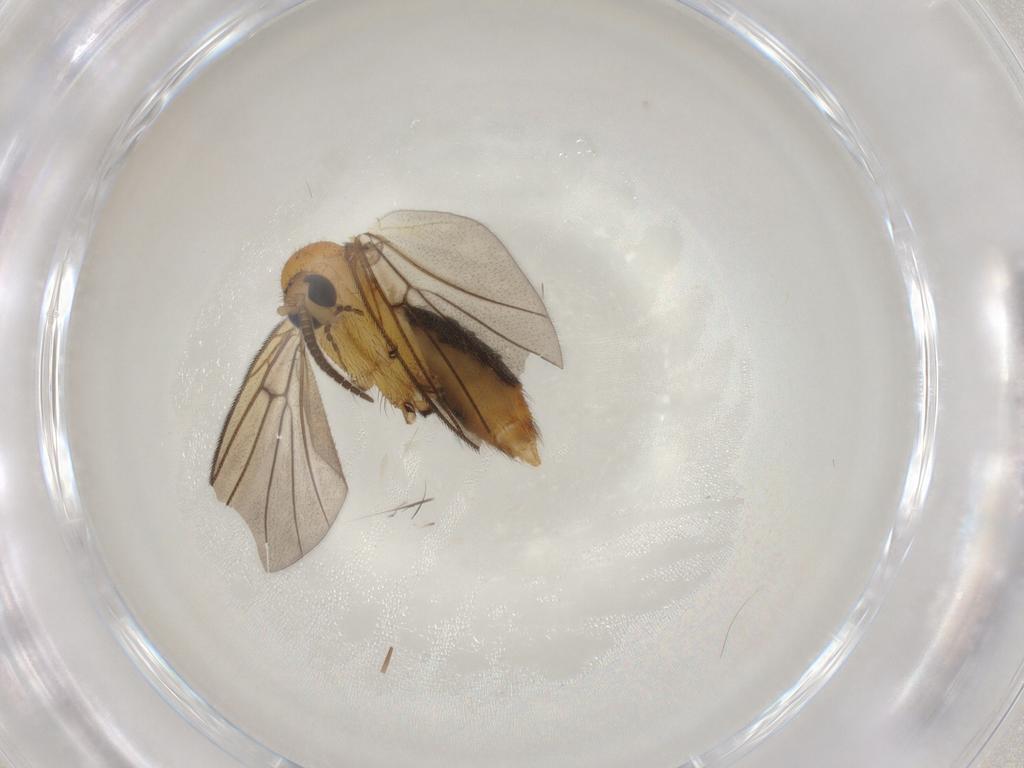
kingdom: Animalia
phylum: Arthropoda
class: Insecta
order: Diptera
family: Mycetophilidae
